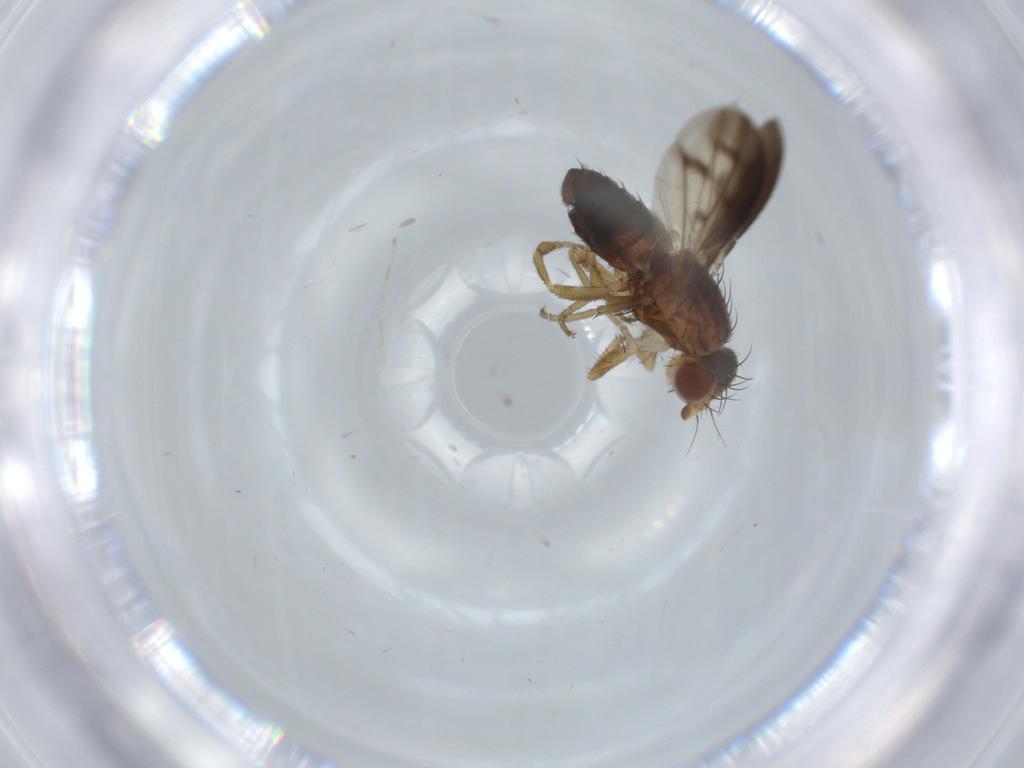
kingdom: Animalia
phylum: Arthropoda
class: Insecta
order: Diptera
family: Heleomyzidae
